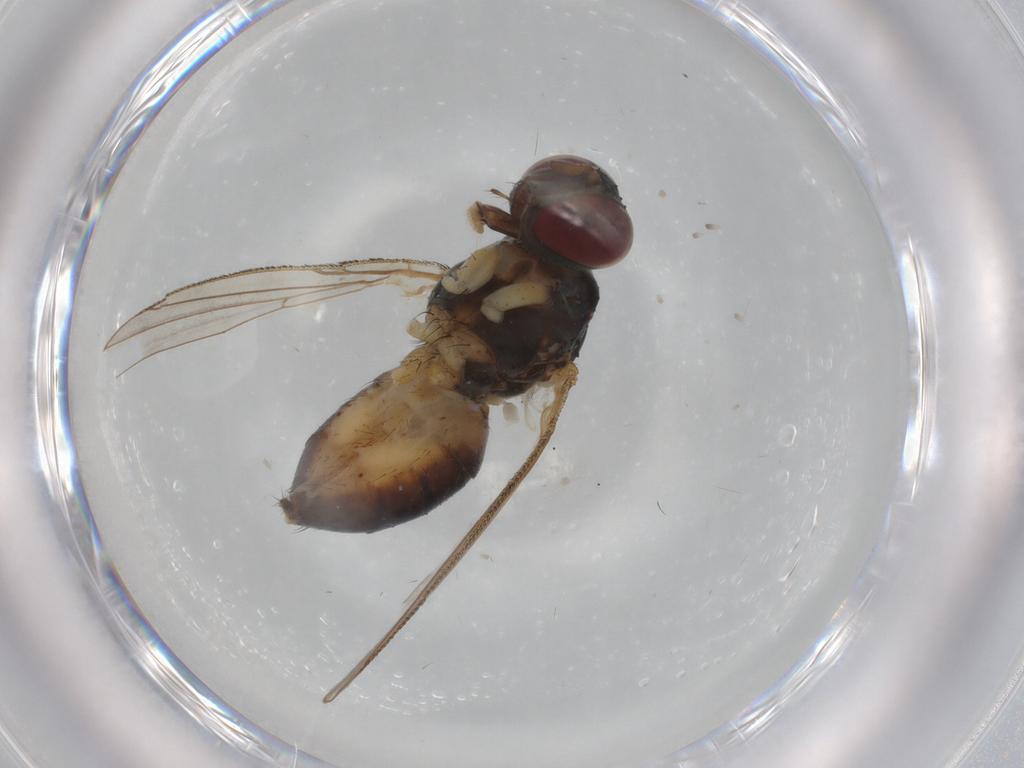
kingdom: Animalia
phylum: Arthropoda
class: Insecta
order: Diptera
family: Muscidae
